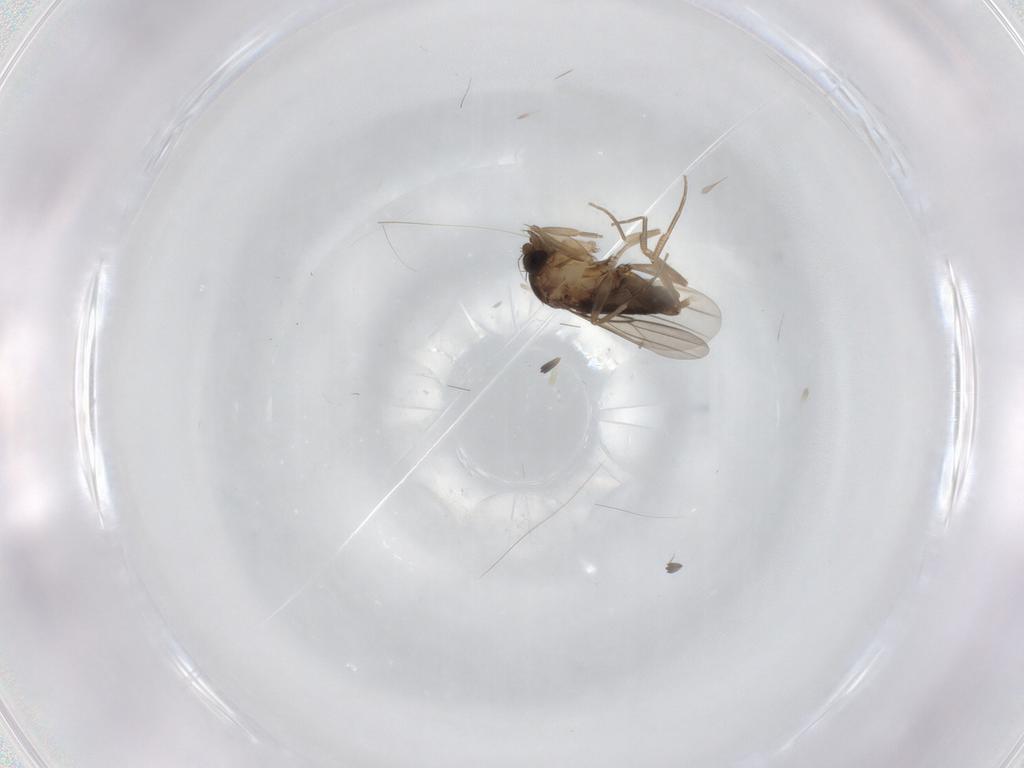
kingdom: Animalia
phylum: Arthropoda
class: Insecta
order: Diptera
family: Phoridae
